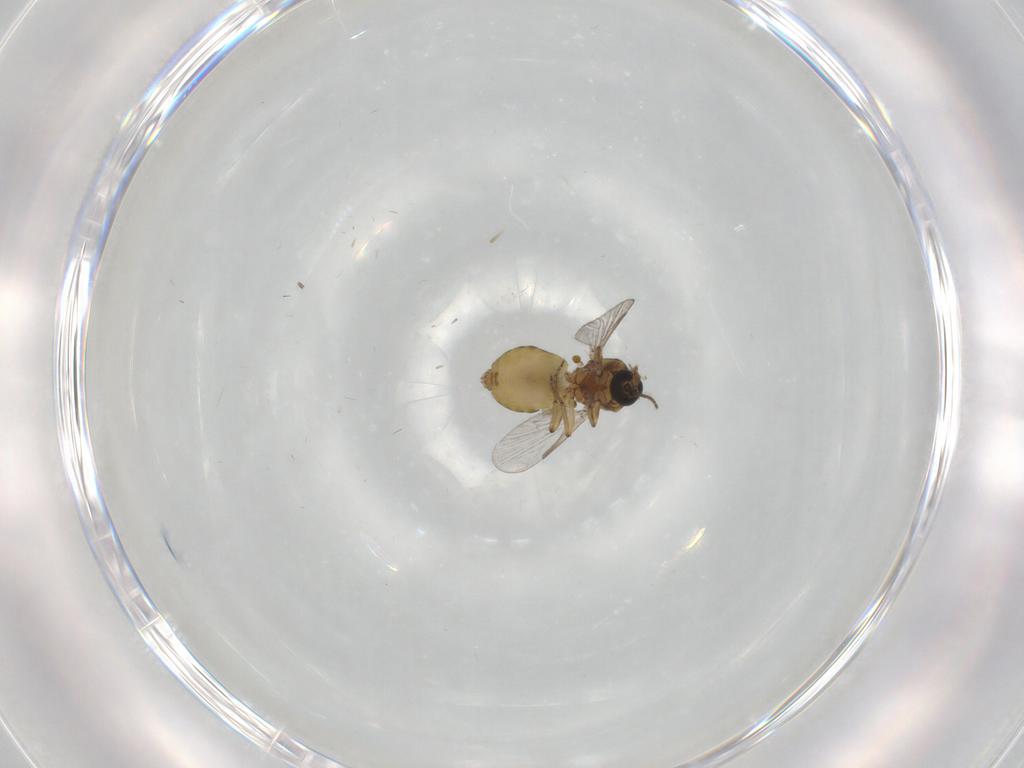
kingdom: Animalia
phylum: Arthropoda
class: Insecta
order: Diptera
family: Ceratopogonidae
